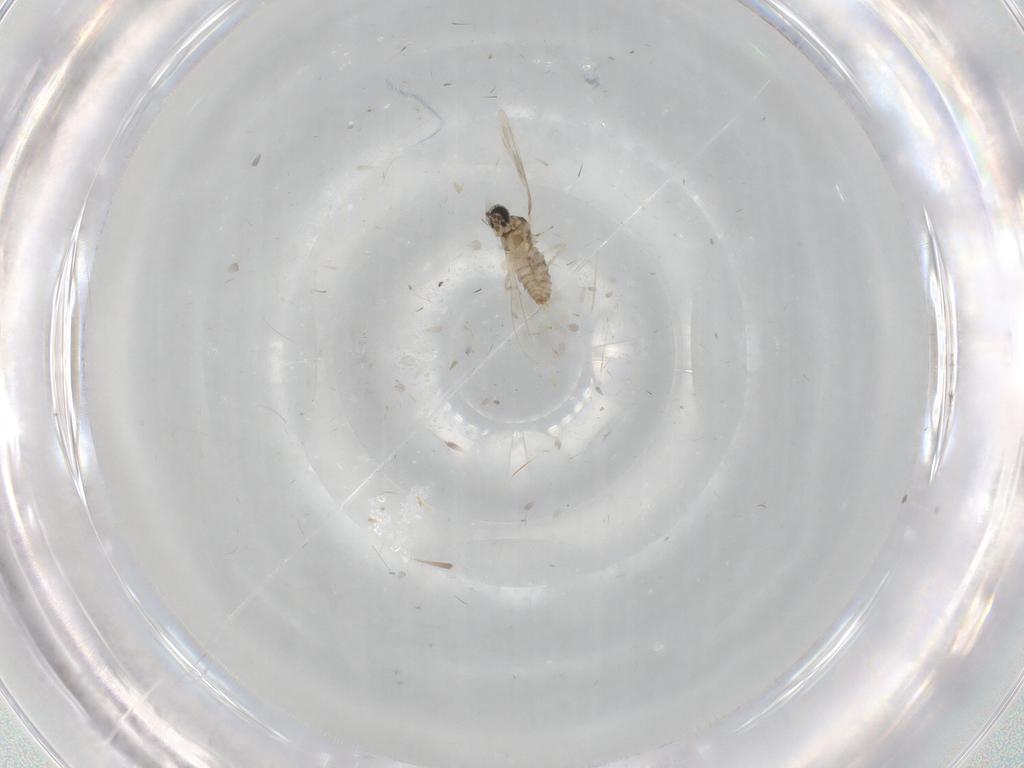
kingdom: Animalia
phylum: Arthropoda
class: Insecta
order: Diptera
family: Cecidomyiidae
